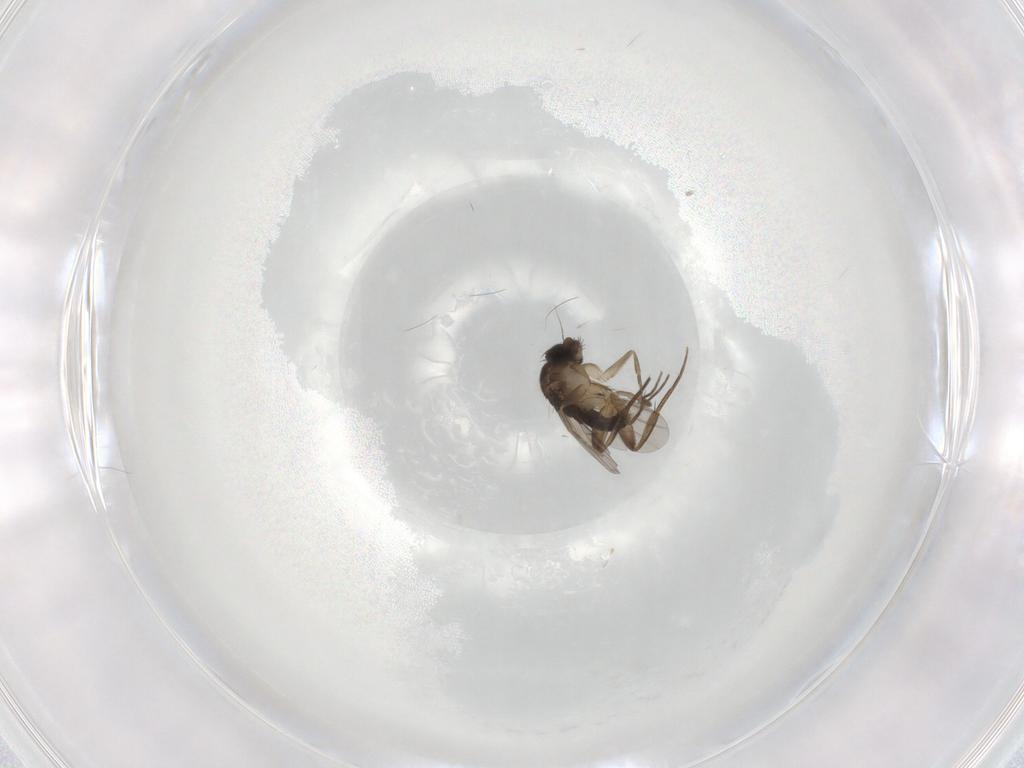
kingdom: Animalia
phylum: Arthropoda
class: Insecta
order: Diptera
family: Phoridae
